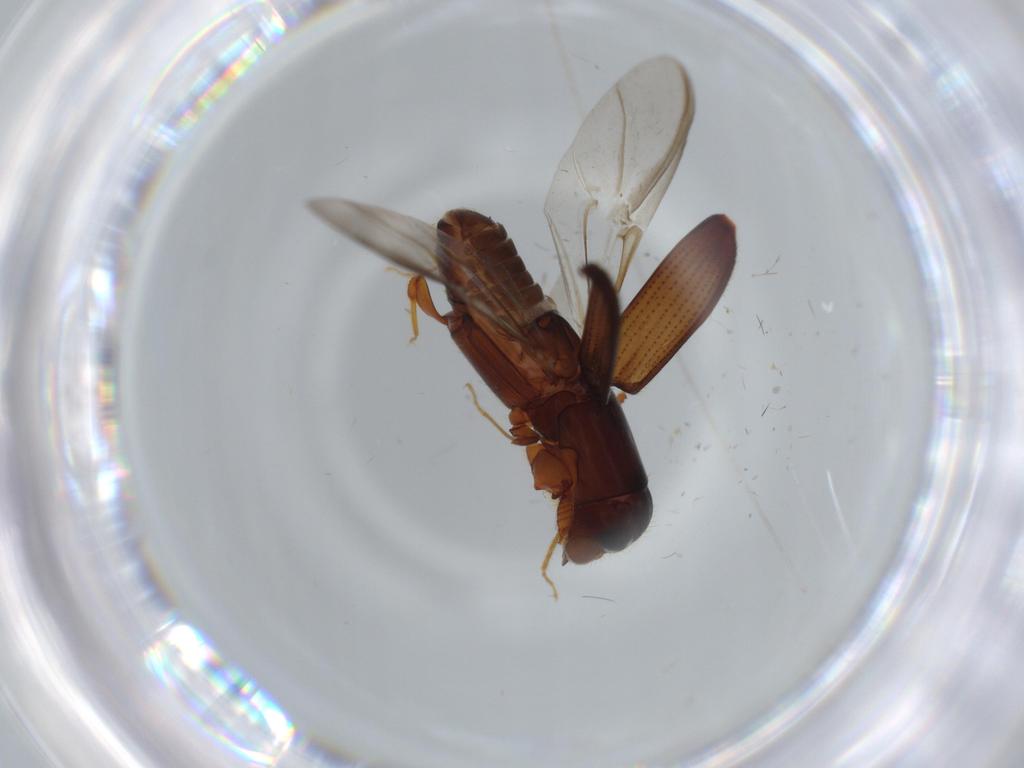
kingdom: Animalia
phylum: Arthropoda
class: Insecta
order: Coleoptera
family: Curculionidae
